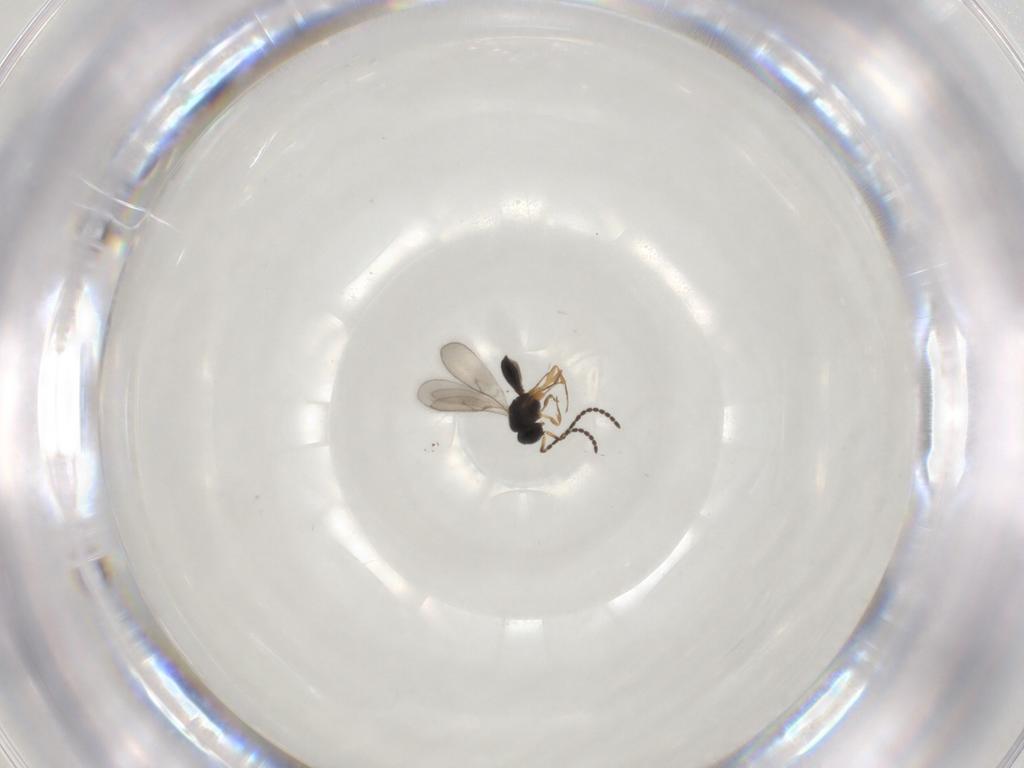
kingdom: Animalia
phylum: Arthropoda
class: Insecta
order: Hymenoptera
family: Scelionidae
